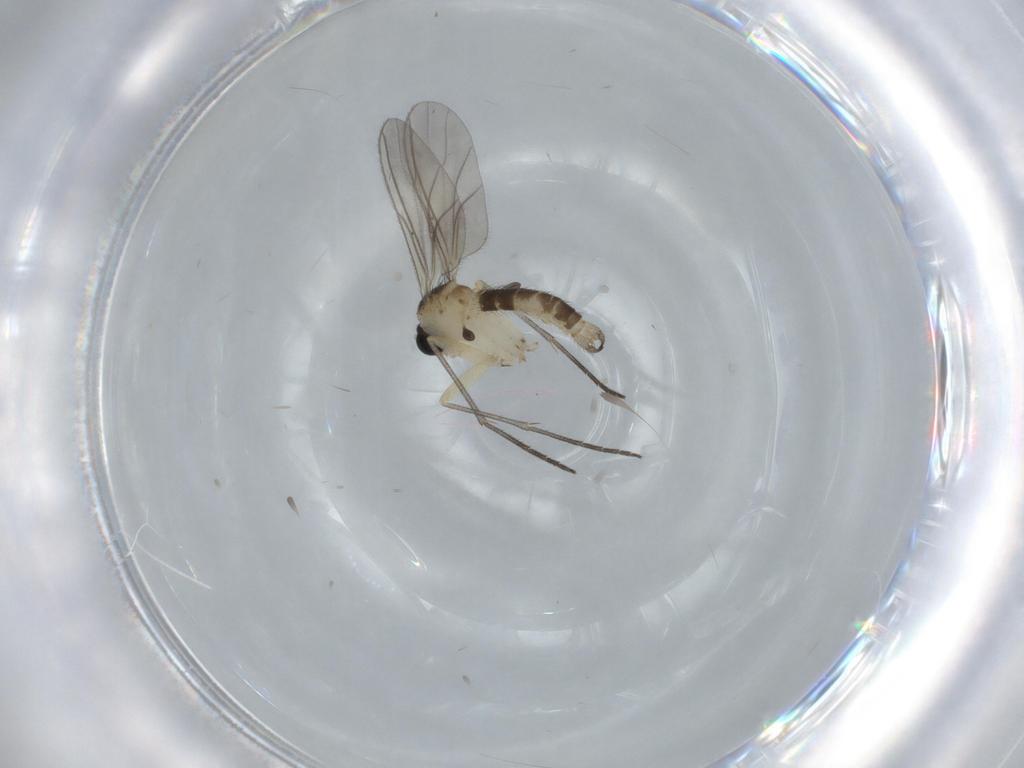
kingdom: Animalia
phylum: Arthropoda
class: Insecta
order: Diptera
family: Sciaridae
